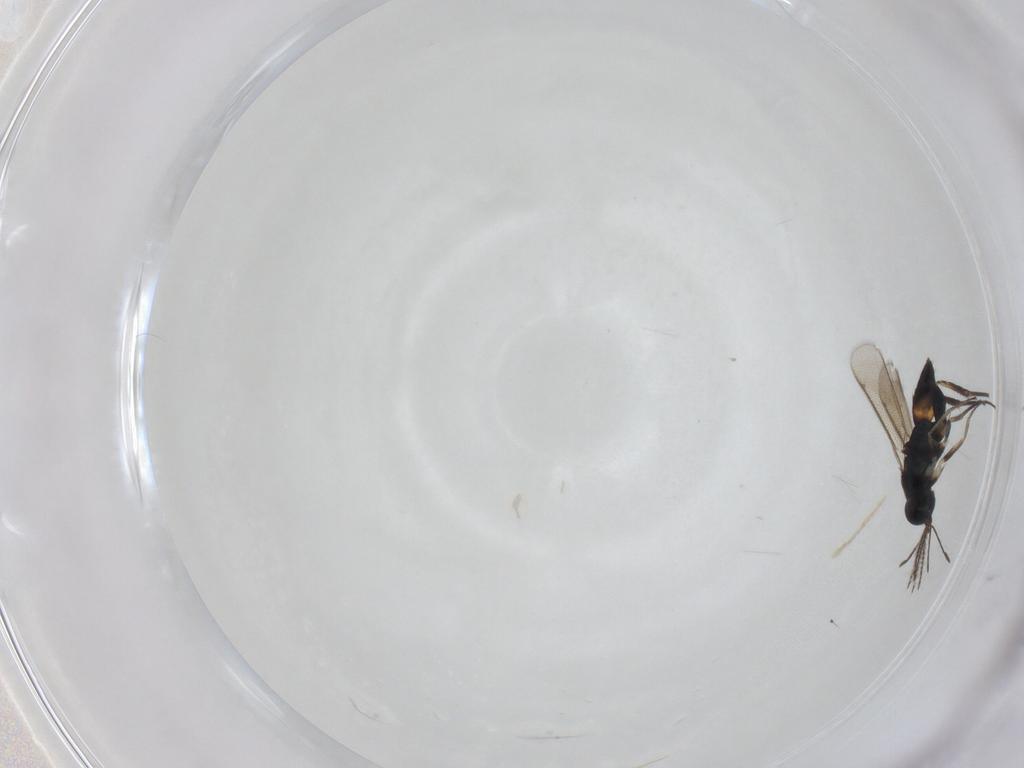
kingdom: Animalia
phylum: Arthropoda
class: Insecta
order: Hymenoptera
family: Eulophidae
